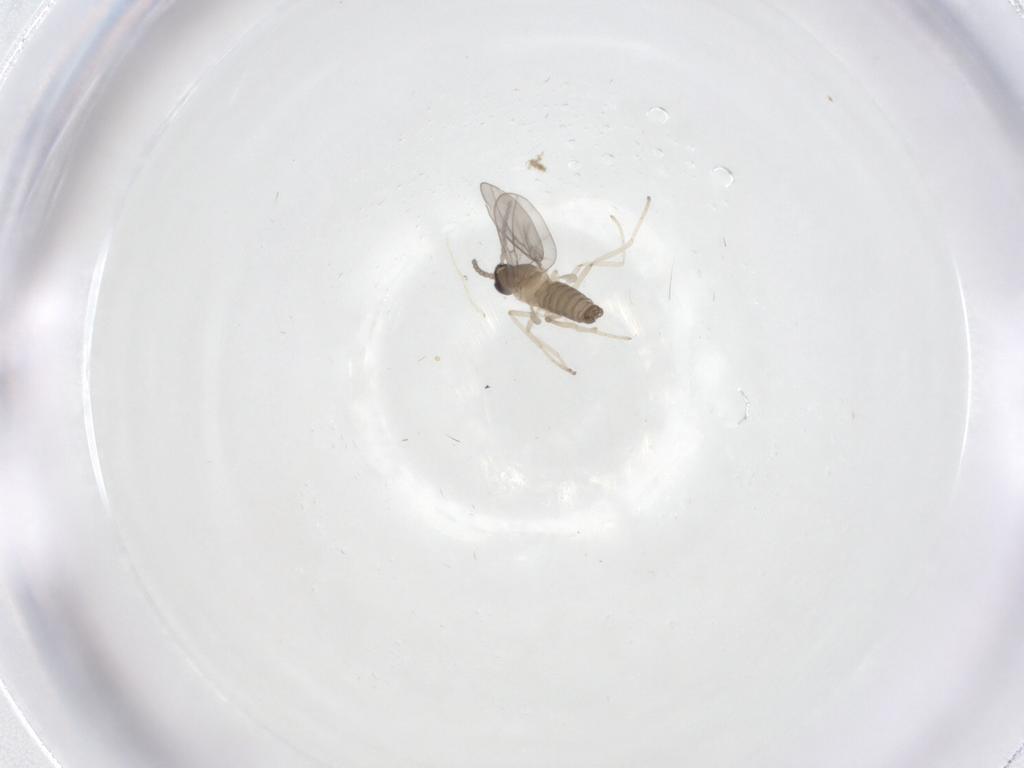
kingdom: Animalia
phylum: Arthropoda
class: Insecta
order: Diptera
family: Cecidomyiidae
